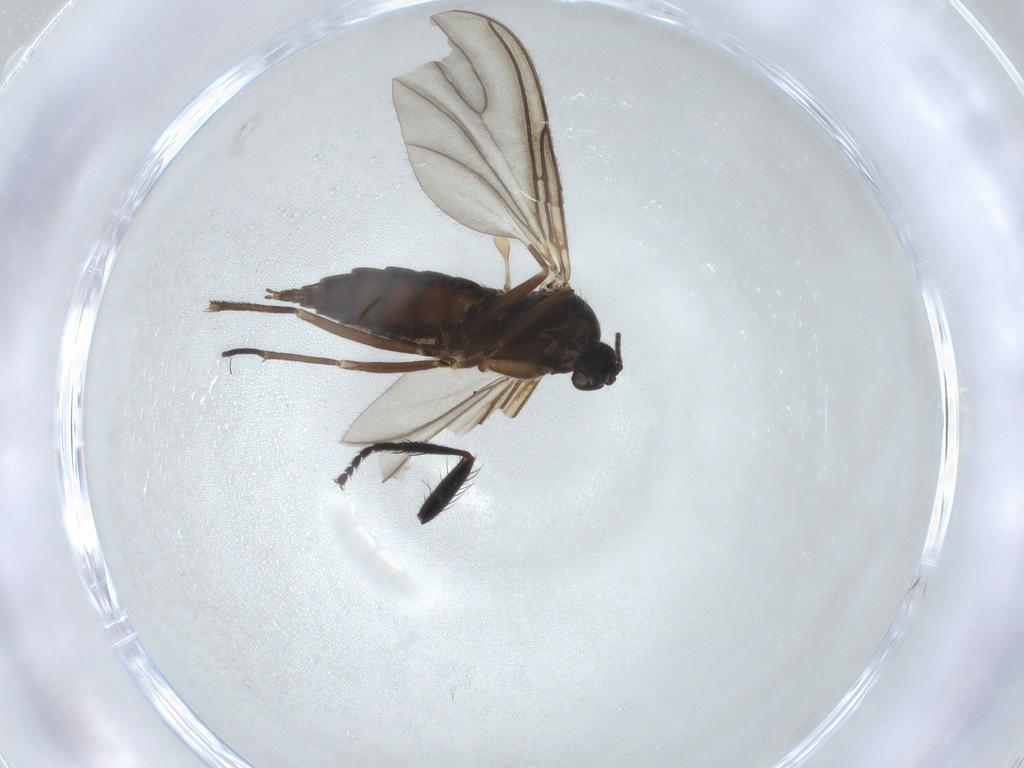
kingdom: Animalia
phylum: Arthropoda
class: Insecta
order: Diptera
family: Sciaridae
